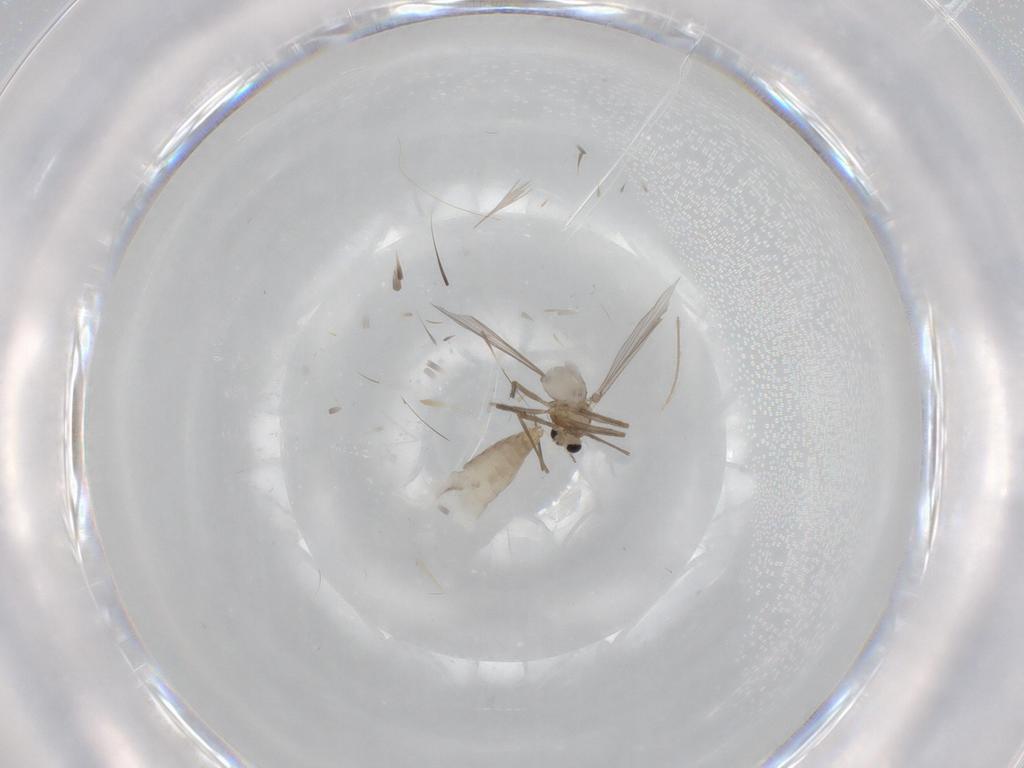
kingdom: Animalia
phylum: Arthropoda
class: Insecta
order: Diptera
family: Chironomidae
